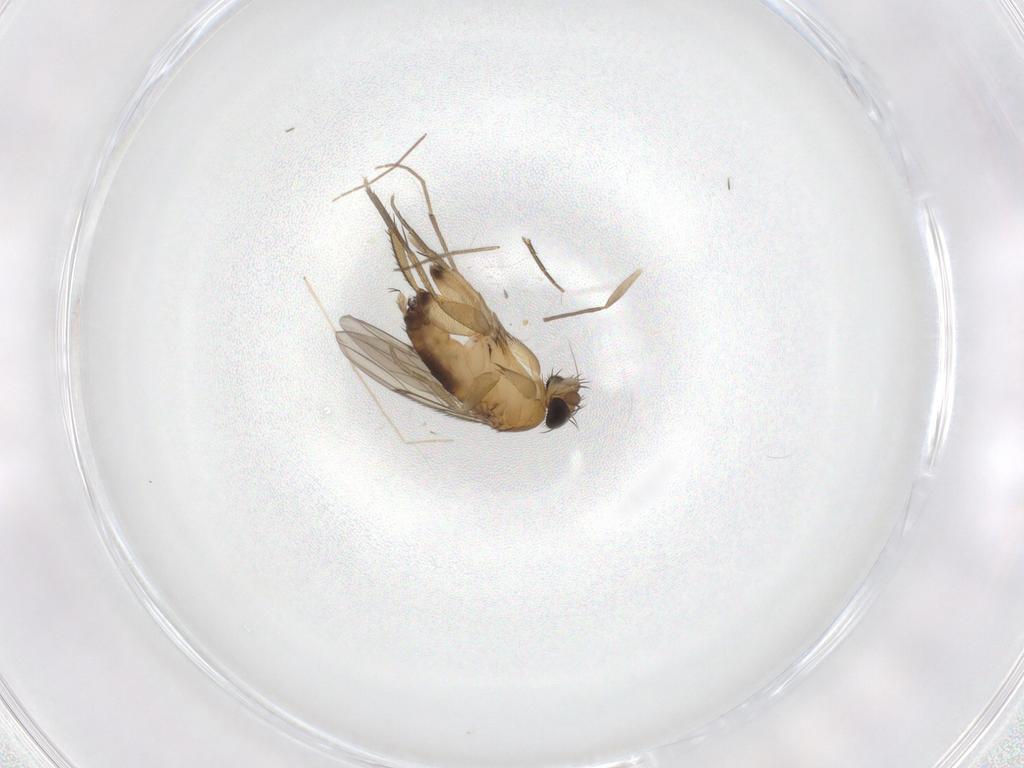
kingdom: Animalia
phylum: Arthropoda
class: Insecta
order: Diptera
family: Phoridae
